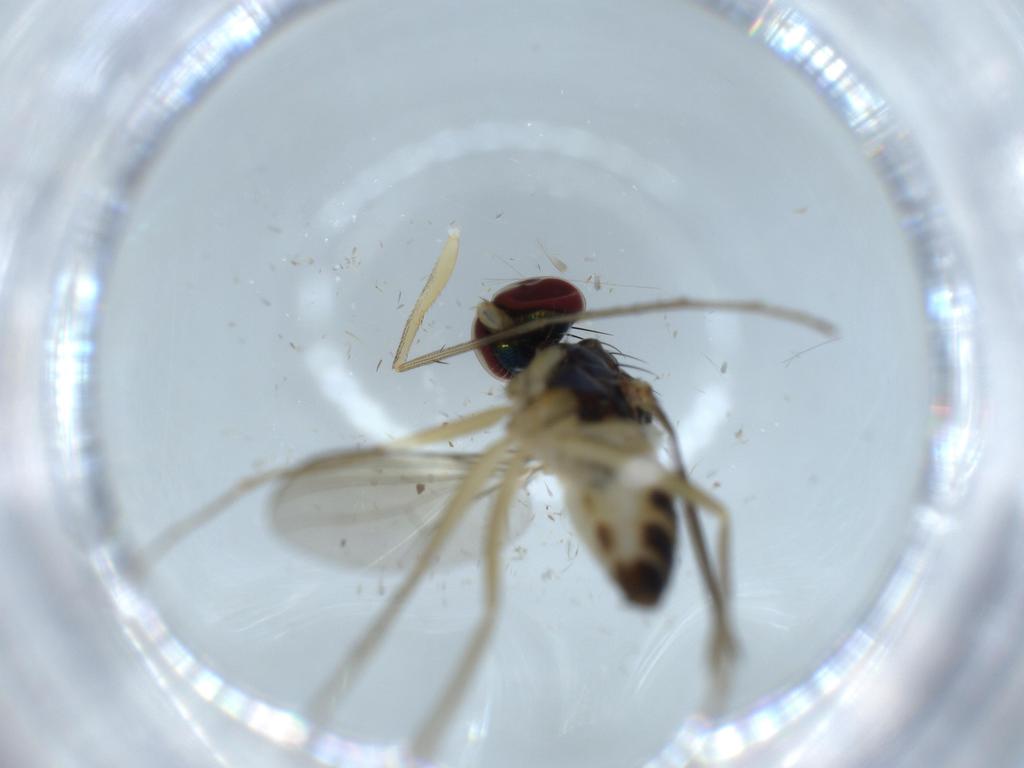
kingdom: Animalia
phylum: Arthropoda
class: Insecta
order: Diptera
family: Dolichopodidae
